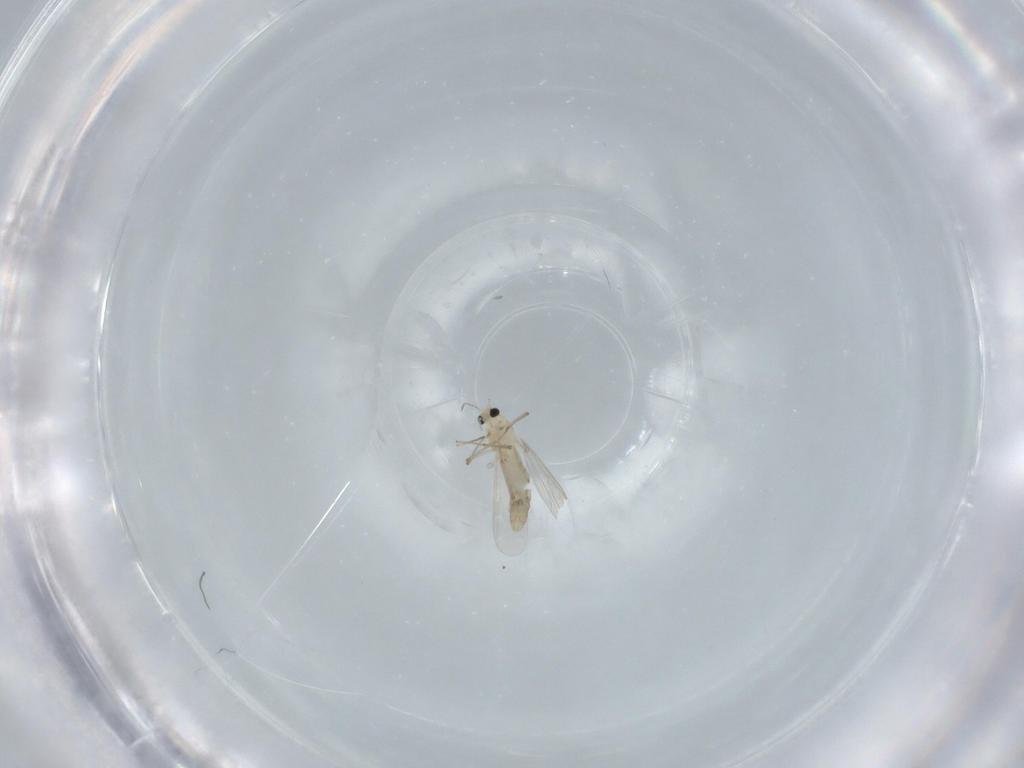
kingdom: Animalia
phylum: Arthropoda
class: Insecta
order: Diptera
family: Chironomidae
